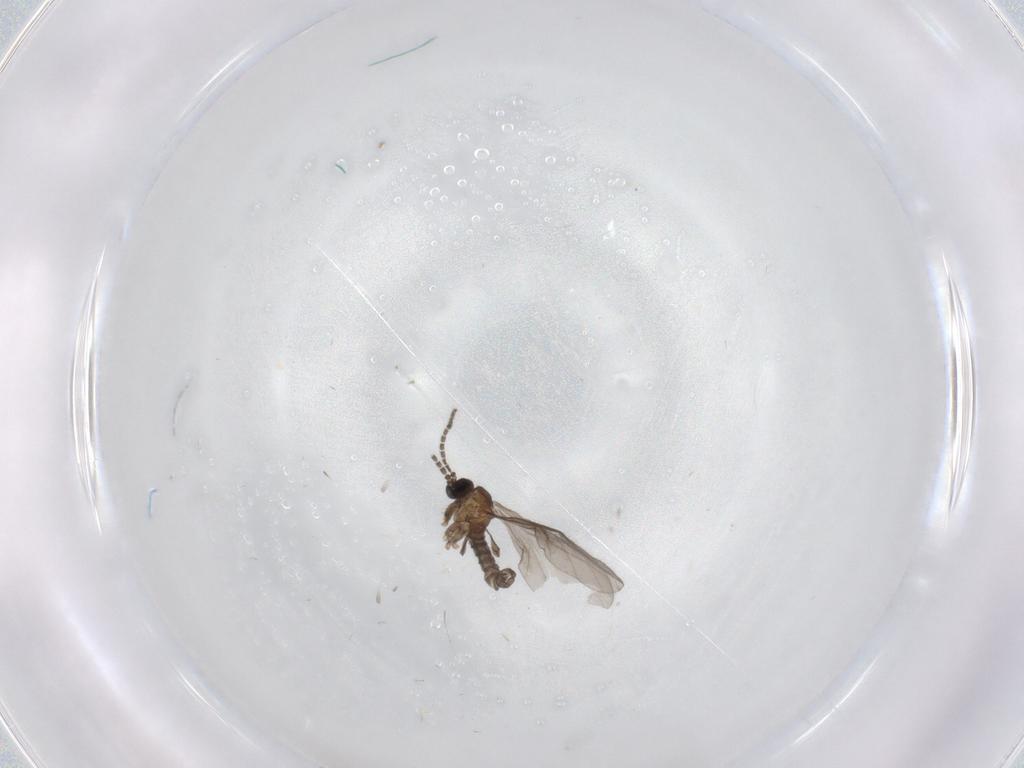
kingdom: Animalia
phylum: Arthropoda
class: Insecta
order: Diptera
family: Sciaridae
